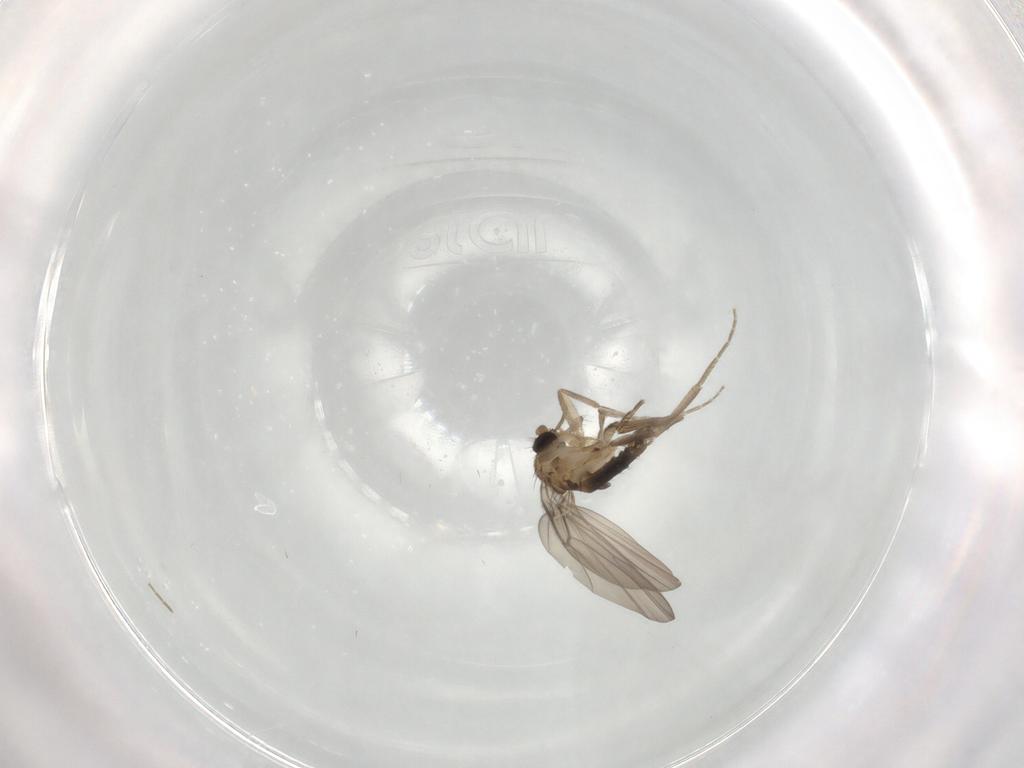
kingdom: Animalia
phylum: Arthropoda
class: Insecta
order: Diptera
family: Phoridae
